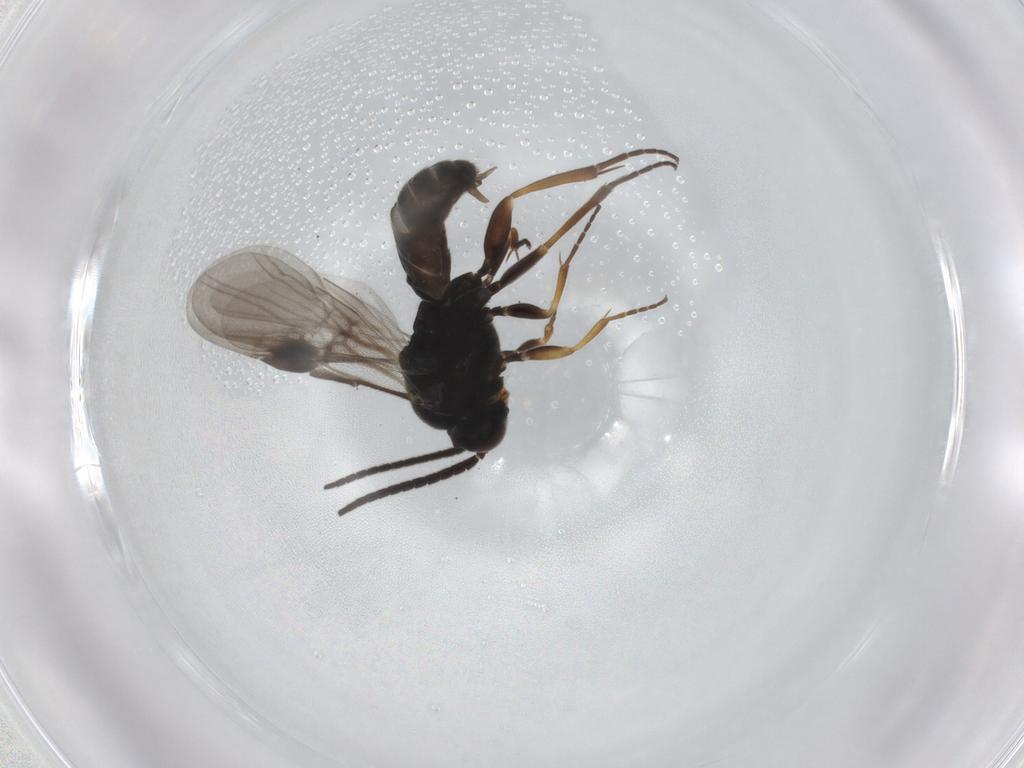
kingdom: Animalia
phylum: Arthropoda
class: Insecta
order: Hymenoptera
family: Braconidae
